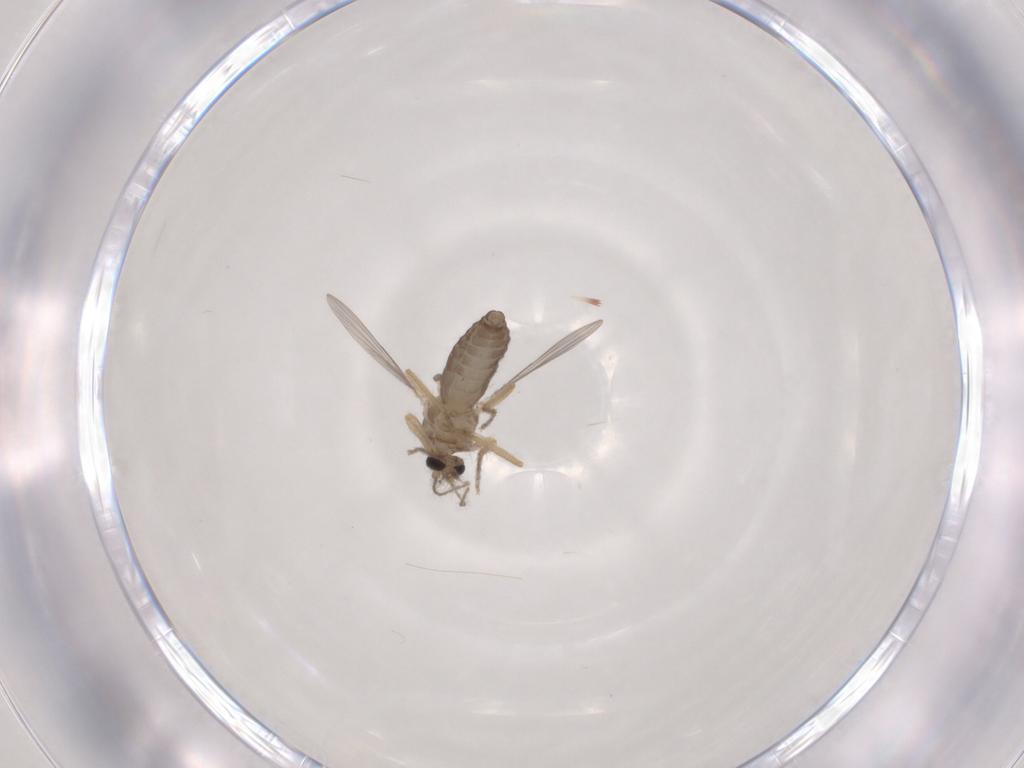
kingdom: Animalia
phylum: Arthropoda
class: Insecta
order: Diptera
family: Ceratopogonidae
